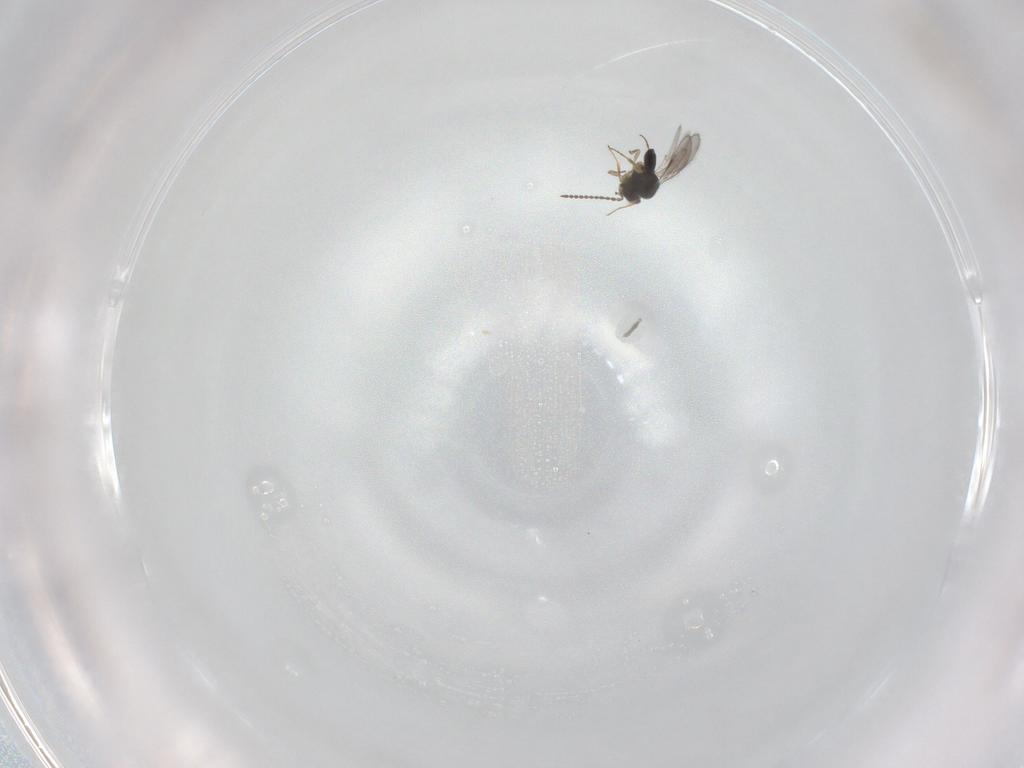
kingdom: Animalia
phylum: Arthropoda
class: Insecta
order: Hymenoptera
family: Scelionidae
